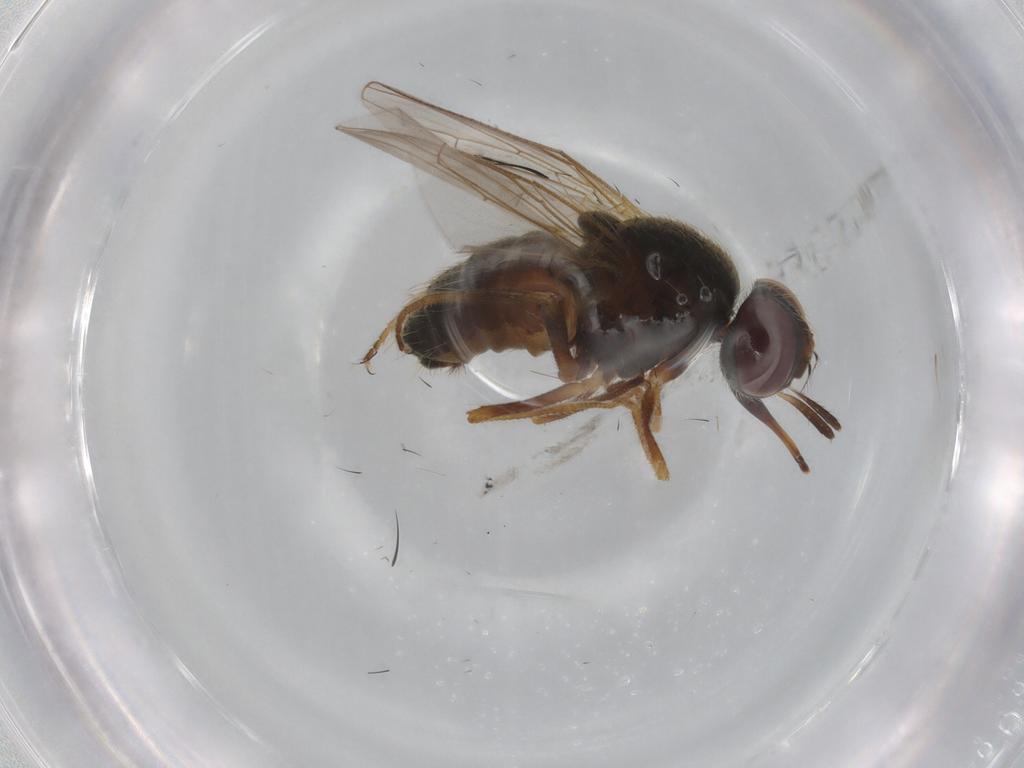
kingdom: Animalia
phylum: Arthropoda
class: Insecta
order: Diptera
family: Muscidae
